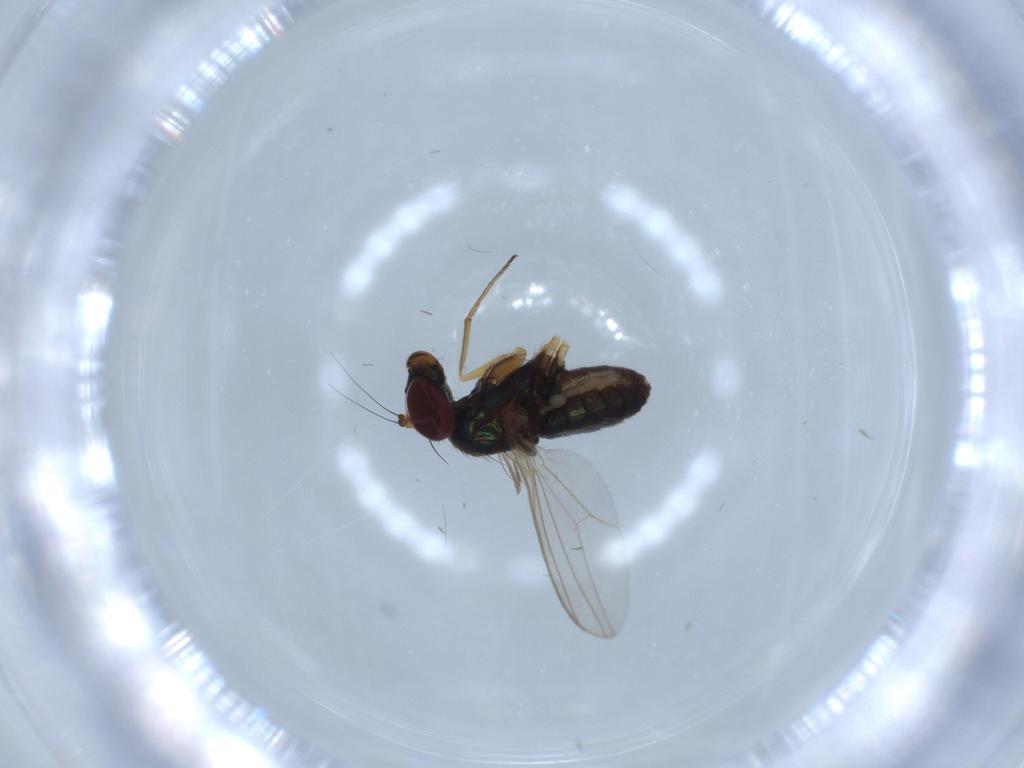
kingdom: Animalia
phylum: Arthropoda
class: Insecta
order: Diptera
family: Dolichopodidae
